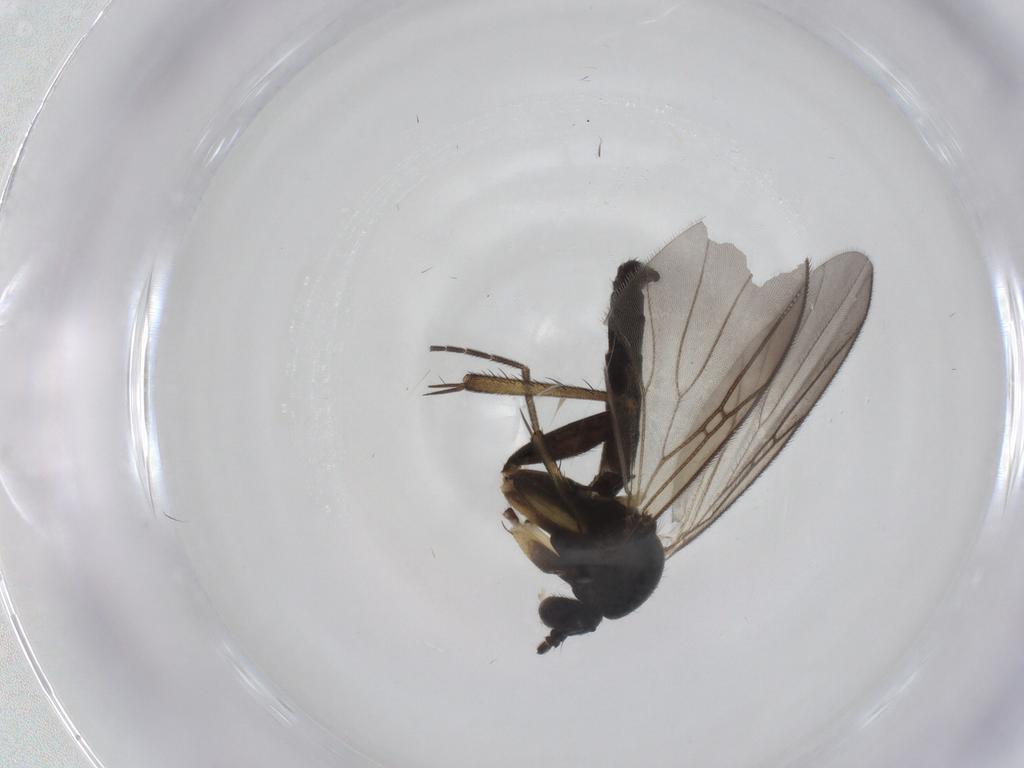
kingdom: Animalia
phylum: Arthropoda
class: Insecta
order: Diptera
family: Mycetophilidae
